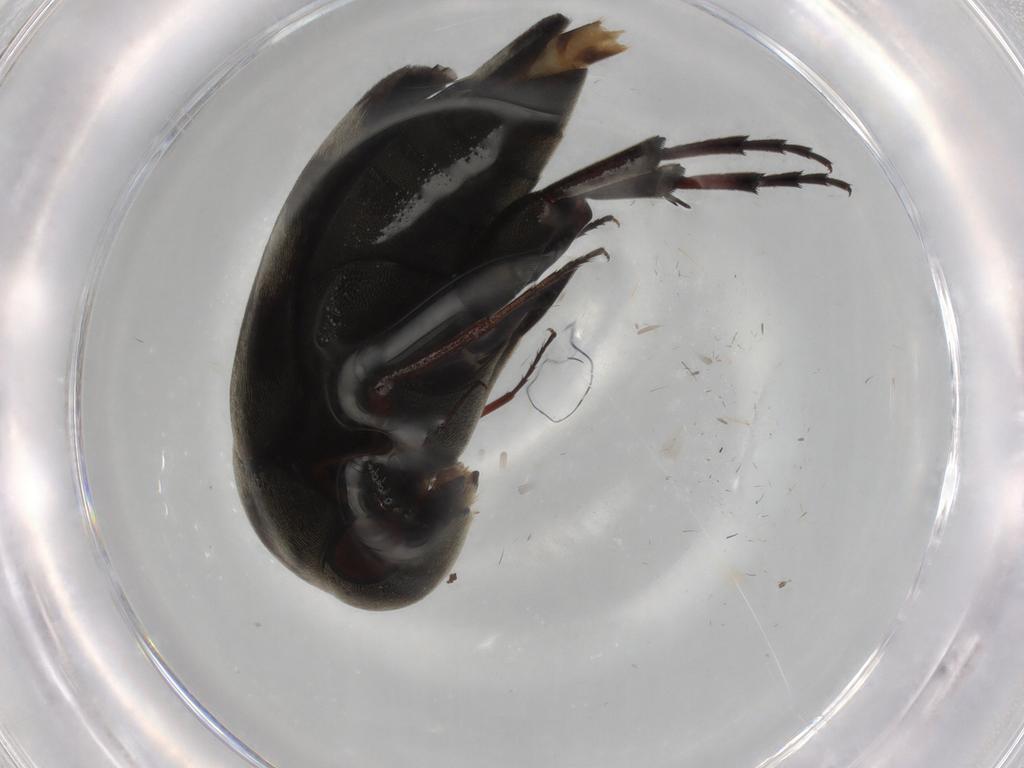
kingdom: Animalia
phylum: Arthropoda
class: Insecta
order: Coleoptera
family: Mordellidae
